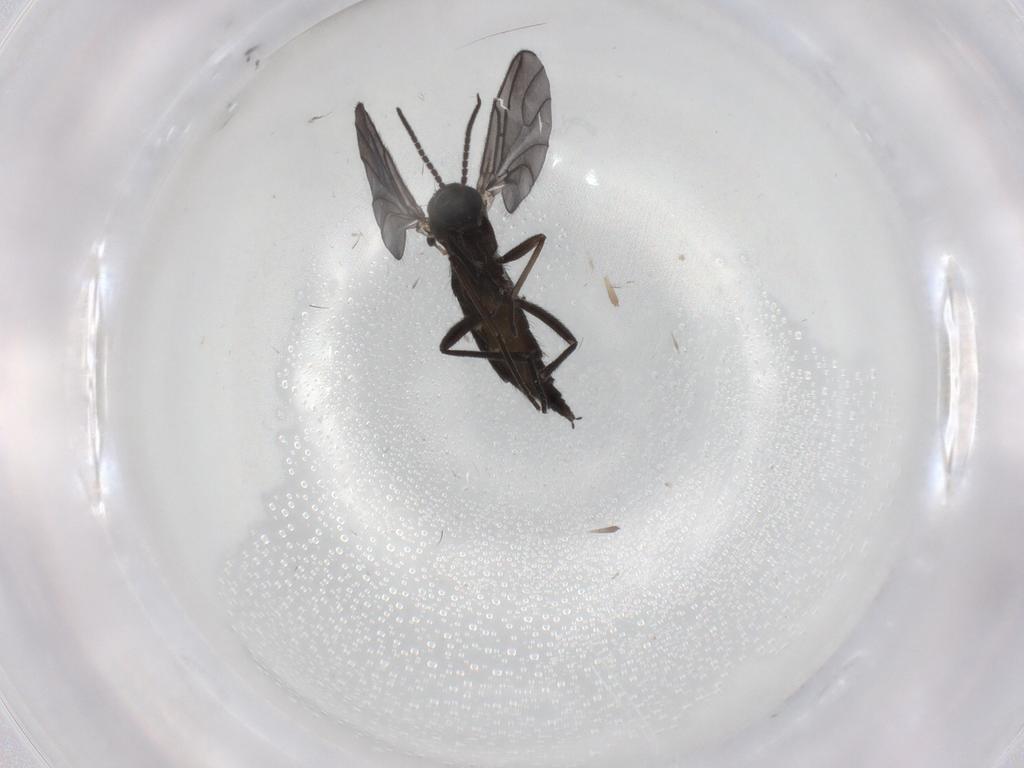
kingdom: Animalia
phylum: Arthropoda
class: Insecta
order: Diptera
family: Sciaridae
